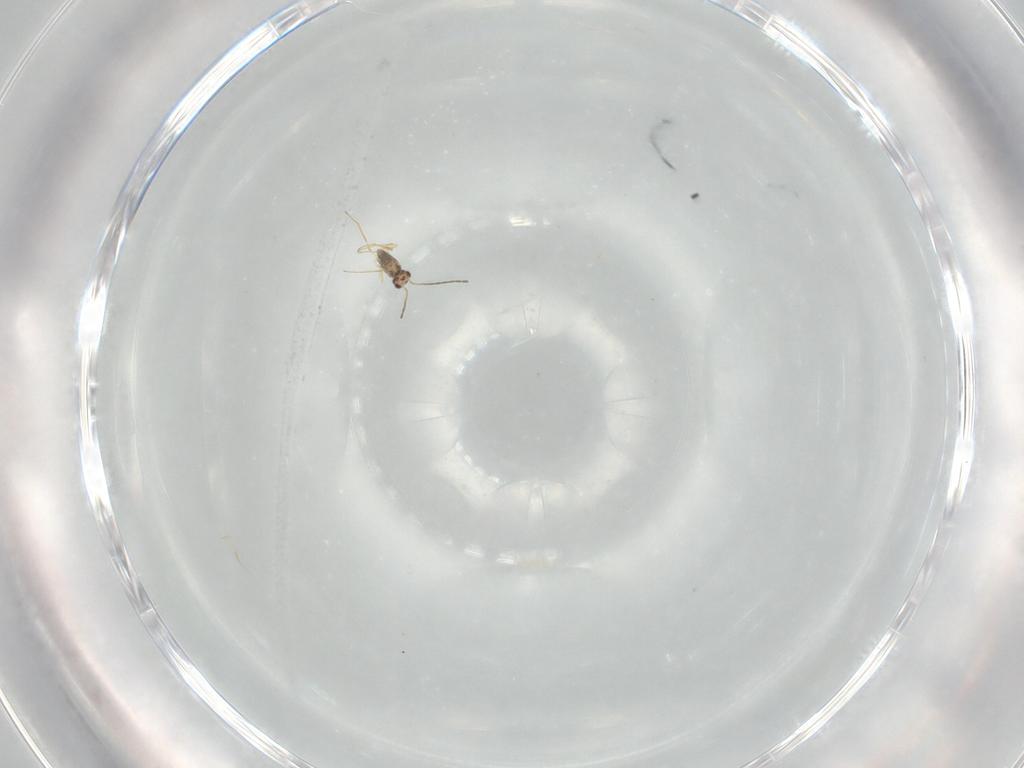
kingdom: Animalia
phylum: Arthropoda
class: Insecta
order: Hymenoptera
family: Mymaridae
